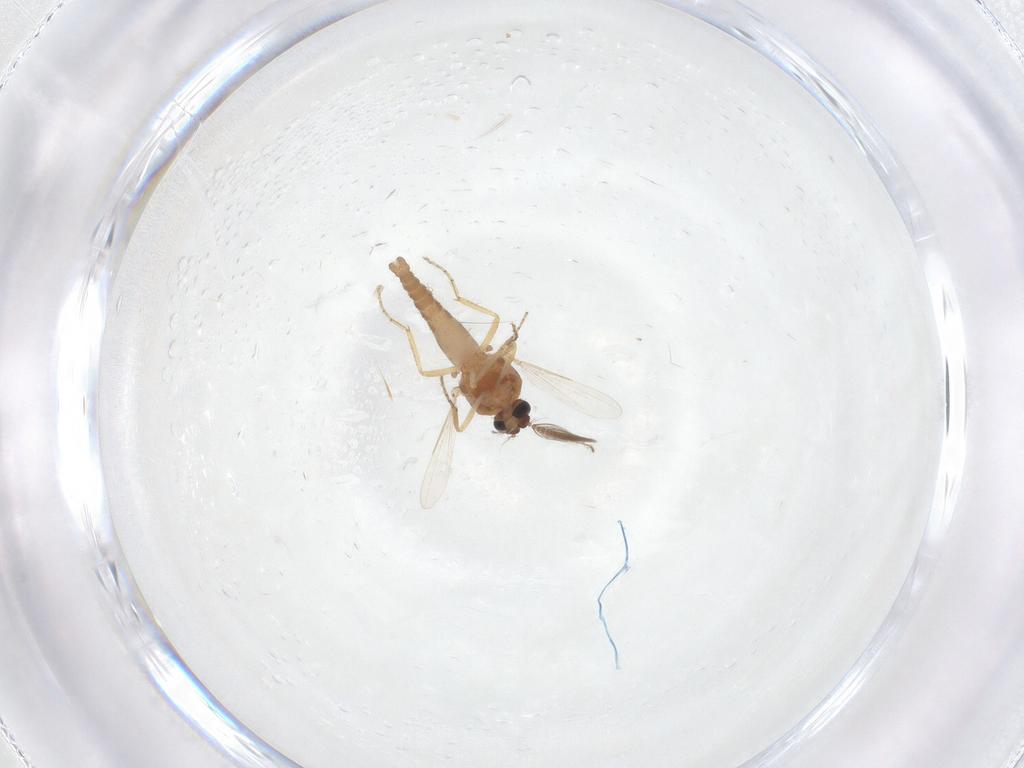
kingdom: Animalia
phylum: Arthropoda
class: Insecta
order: Diptera
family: Ceratopogonidae
